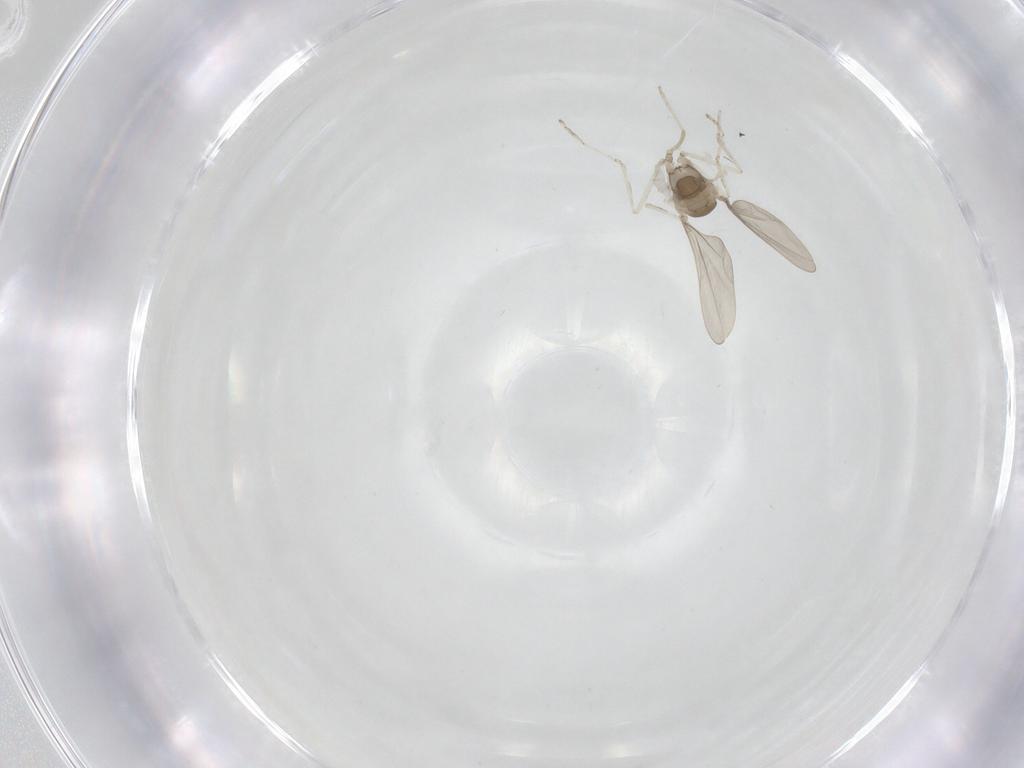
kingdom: Animalia
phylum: Arthropoda
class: Insecta
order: Diptera
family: Cecidomyiidae
